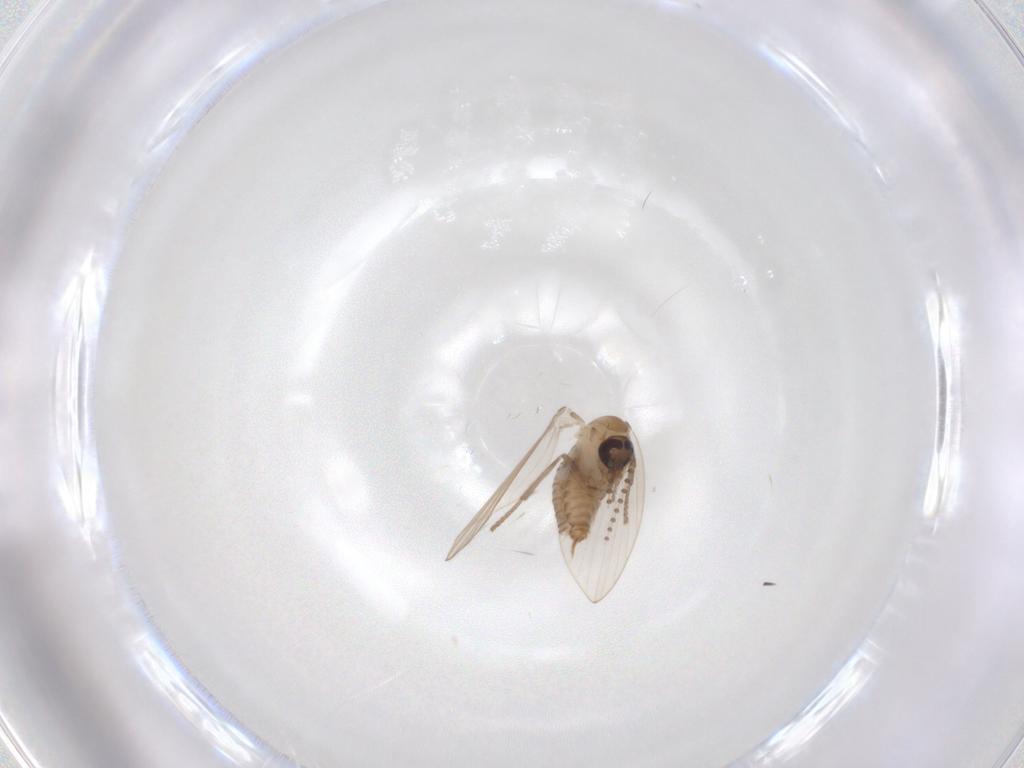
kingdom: Animalia
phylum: Arthropoda
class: Insecta
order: Diptera
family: Psychodidae
